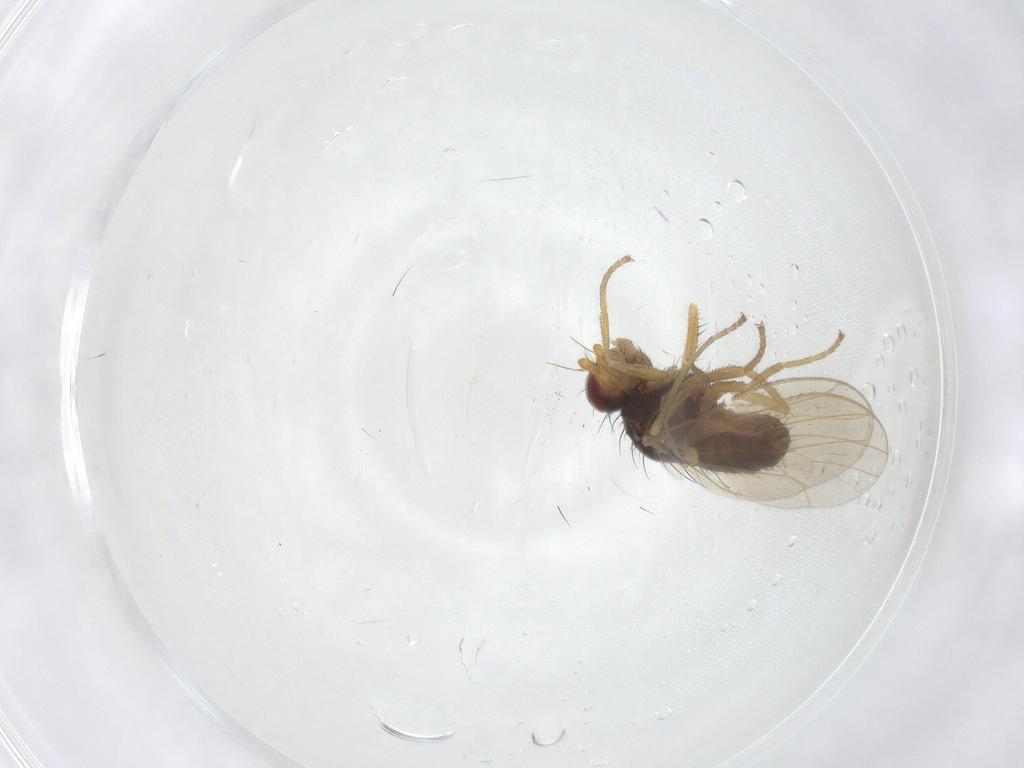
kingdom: Animalia
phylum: Arthropoda
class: Insecta
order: Diptera
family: Heleomyzidae
